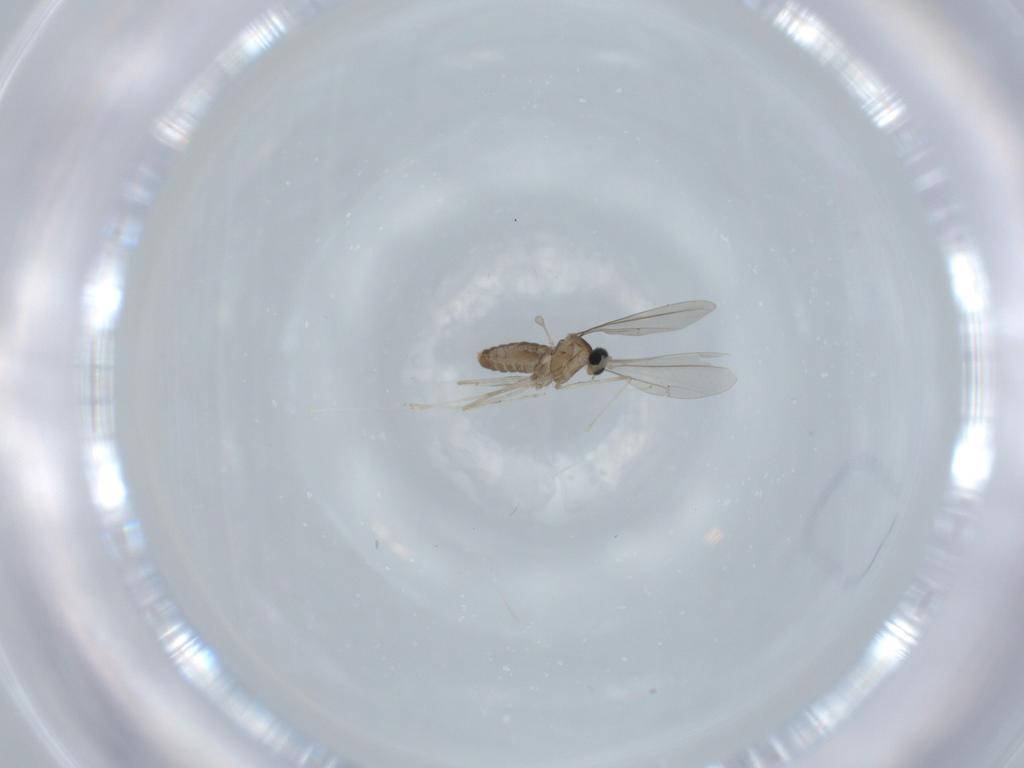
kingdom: Animalia
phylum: Arthropoda
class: Insecta
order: Diptera
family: Cecidomyiidae
